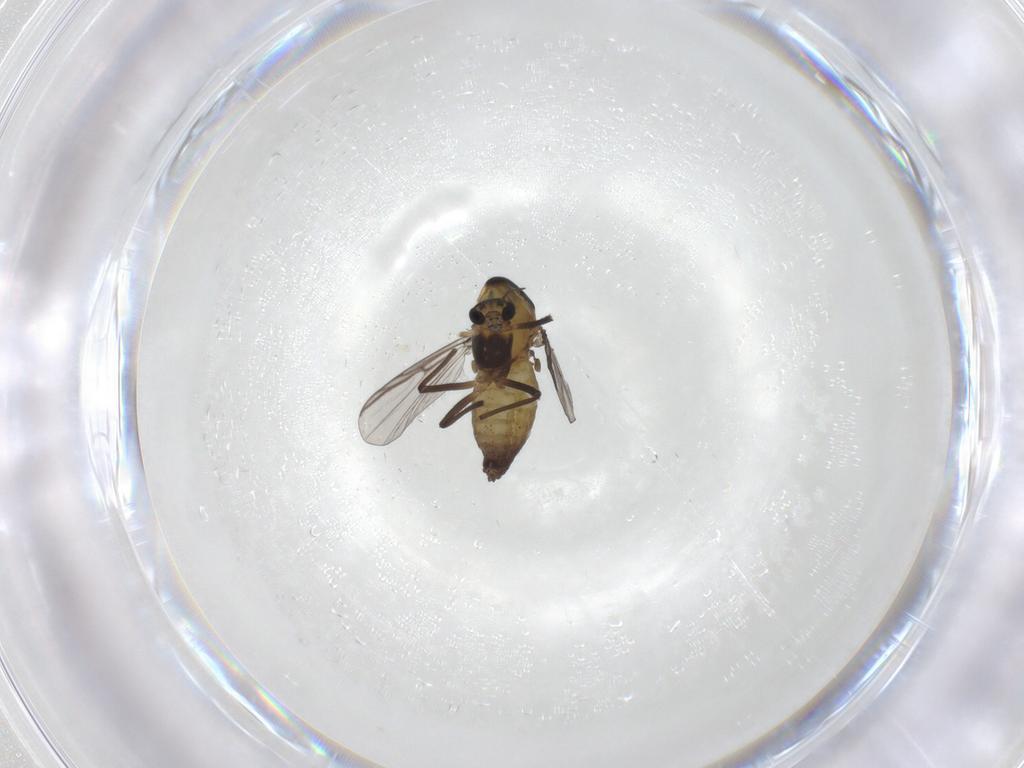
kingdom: Animalia
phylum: Arthropoda
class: Insecta
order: Diptera
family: Chironomidae
